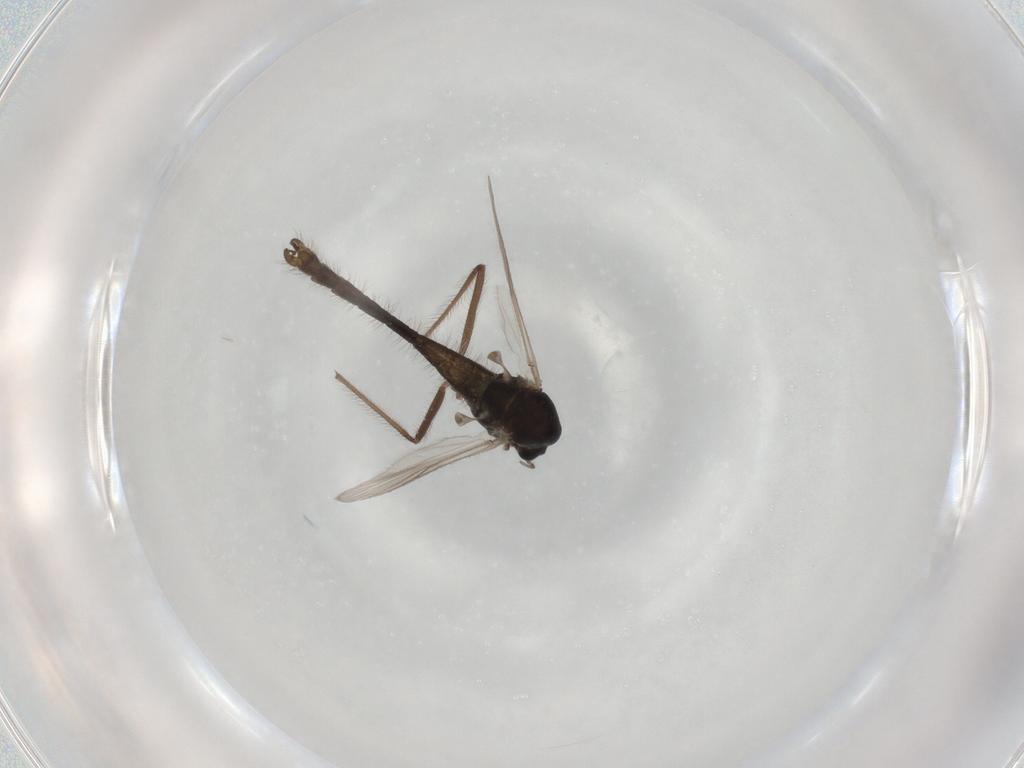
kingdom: Animalia
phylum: Arthropoda
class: Insecta
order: Diptera
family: Chironomidae
